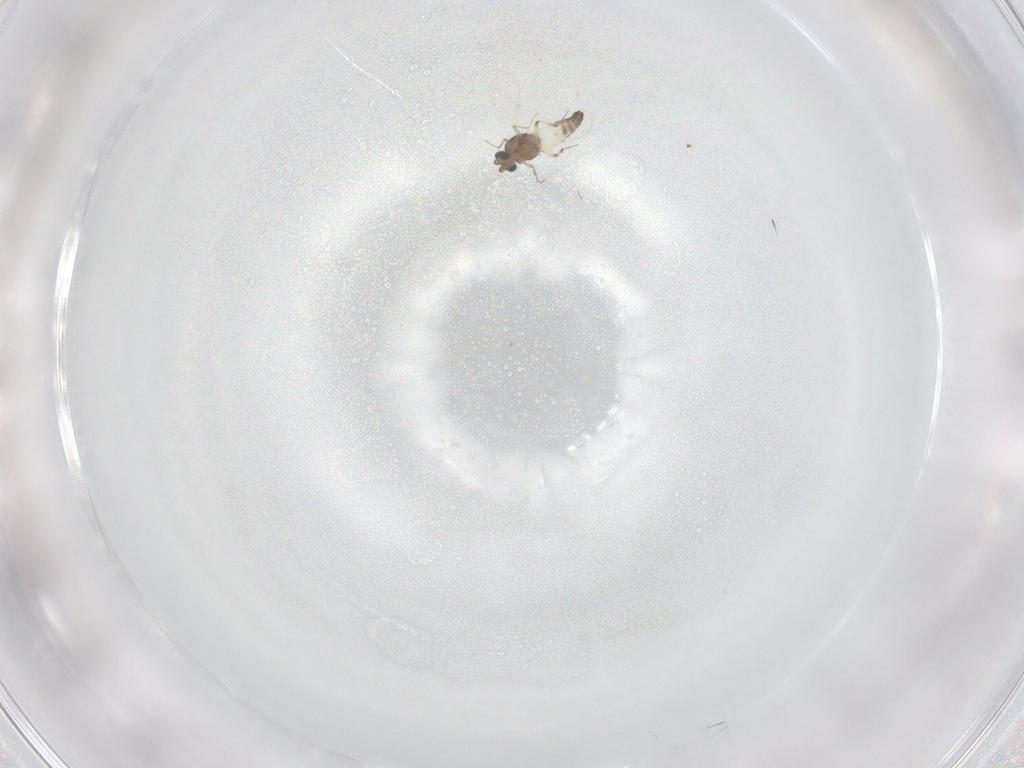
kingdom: Animalia
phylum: Arthropoda
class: Insecta
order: Diptera
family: Ceratopogonidae
